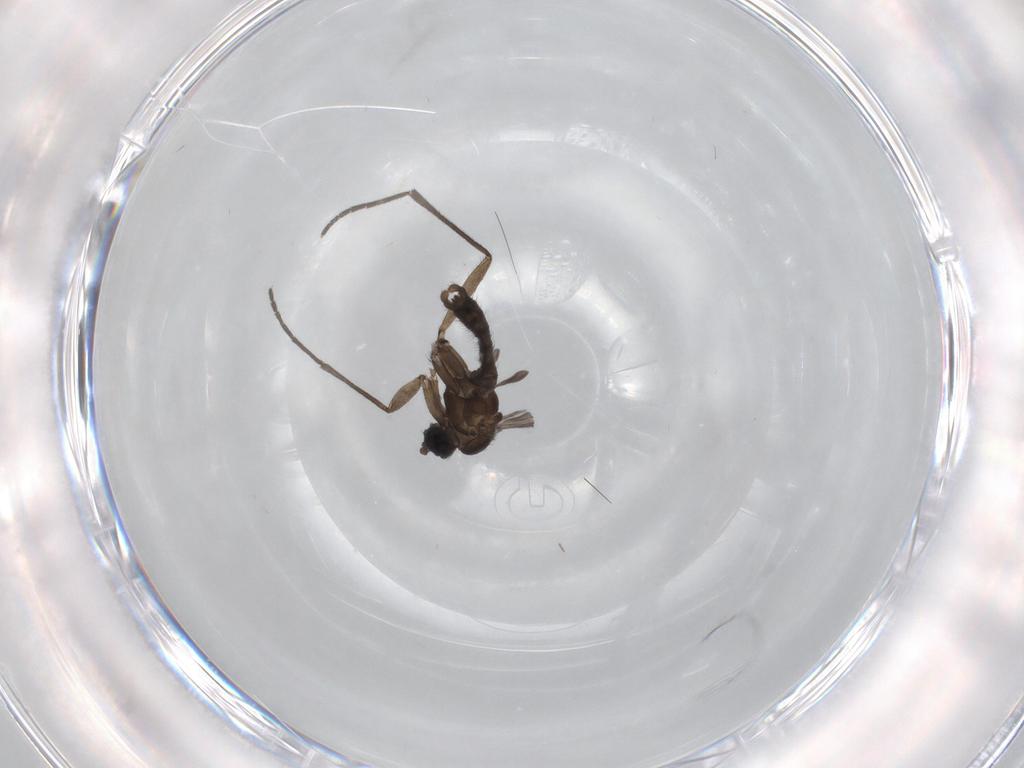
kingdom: Animalia
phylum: Arthropoda
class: Insecta
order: Diptera
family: Sciaridae
